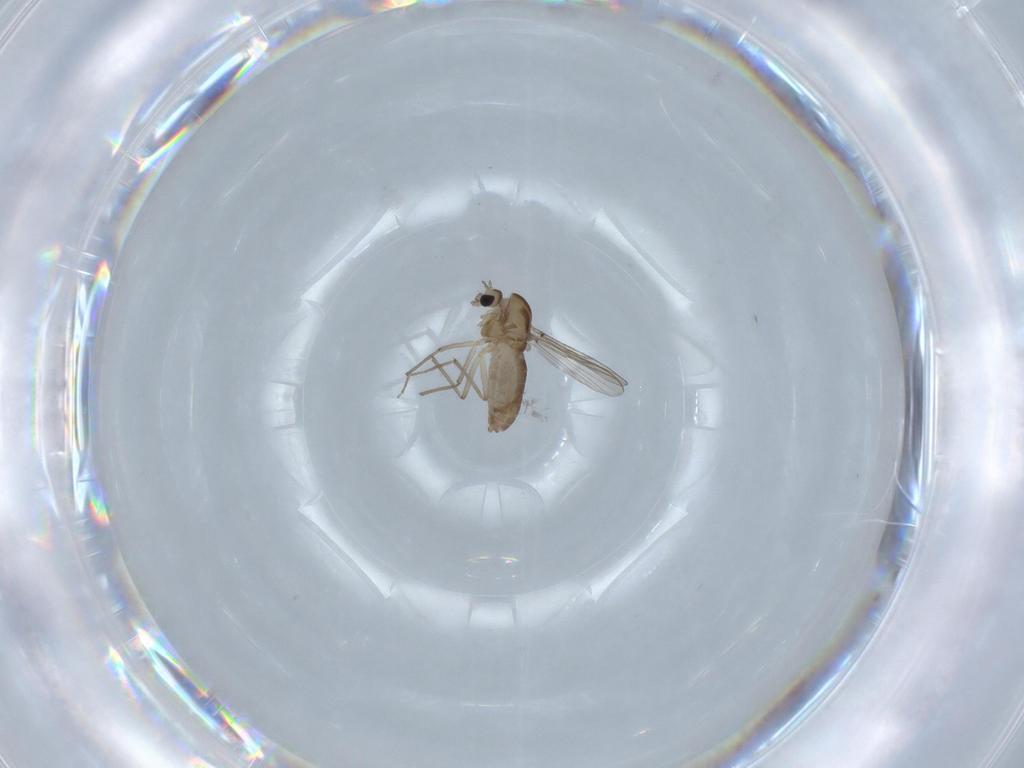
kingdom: Animalia
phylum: Arthropoda
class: Insecta
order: Diptera
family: Chironomidae
